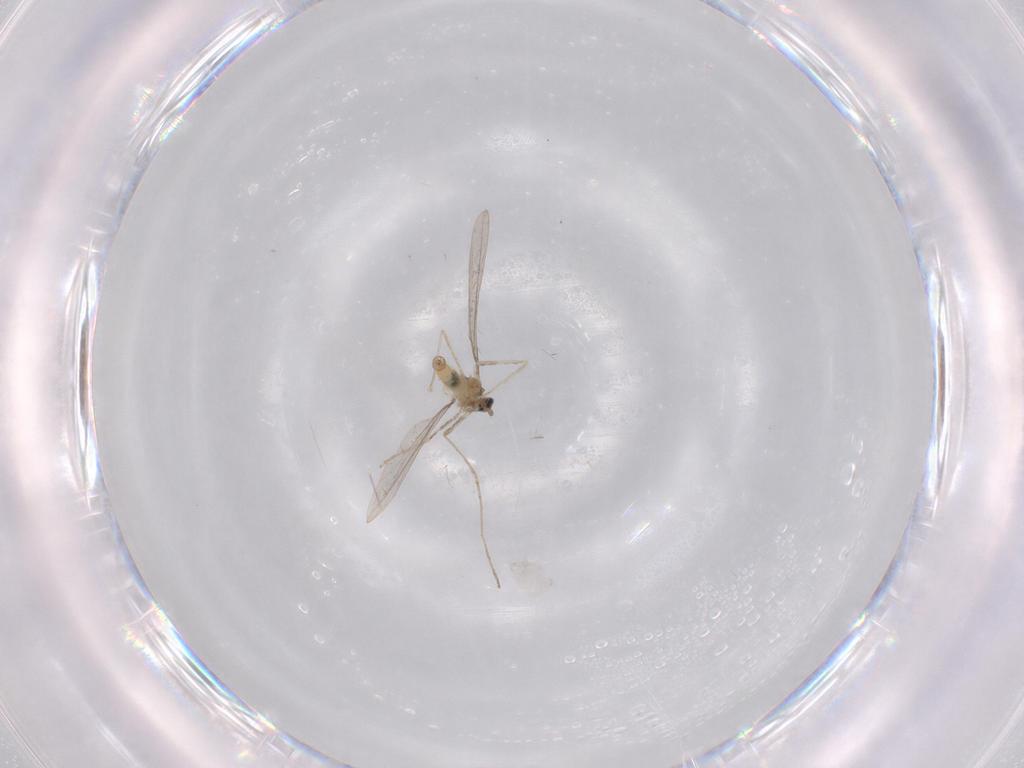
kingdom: Animalia
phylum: Arthropoda
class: Insecta
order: Diptera
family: Cecidomyiidae
